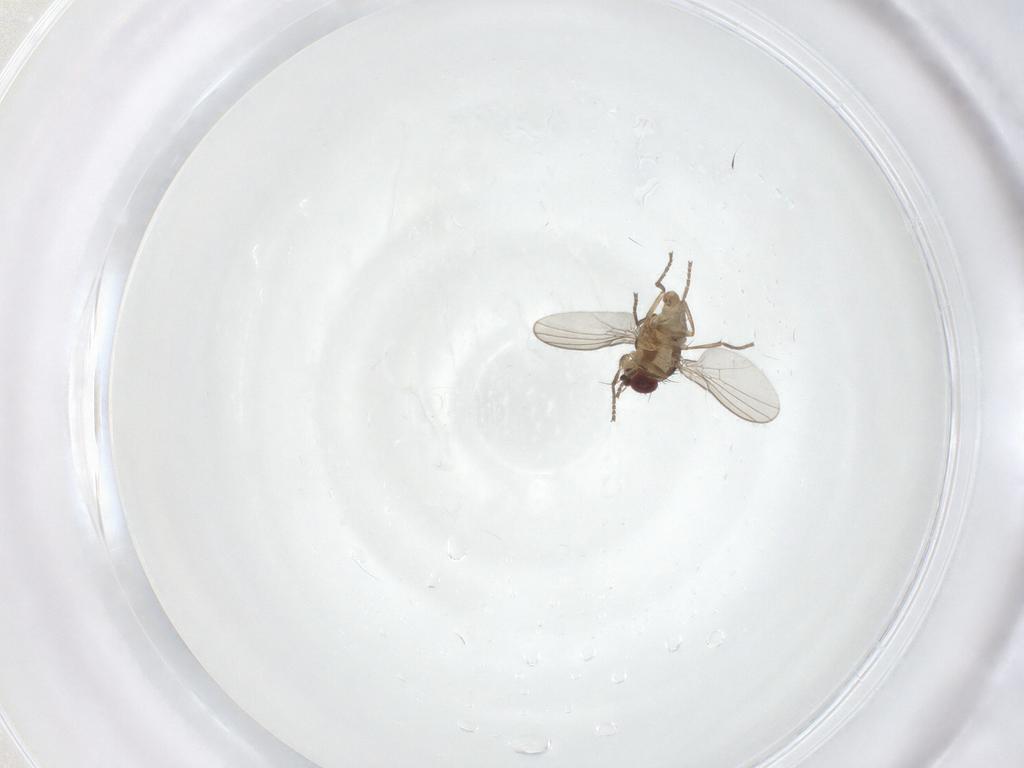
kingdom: Animalia
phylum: Arthropoda
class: Insecta
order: Diptera
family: Agromyzidae
